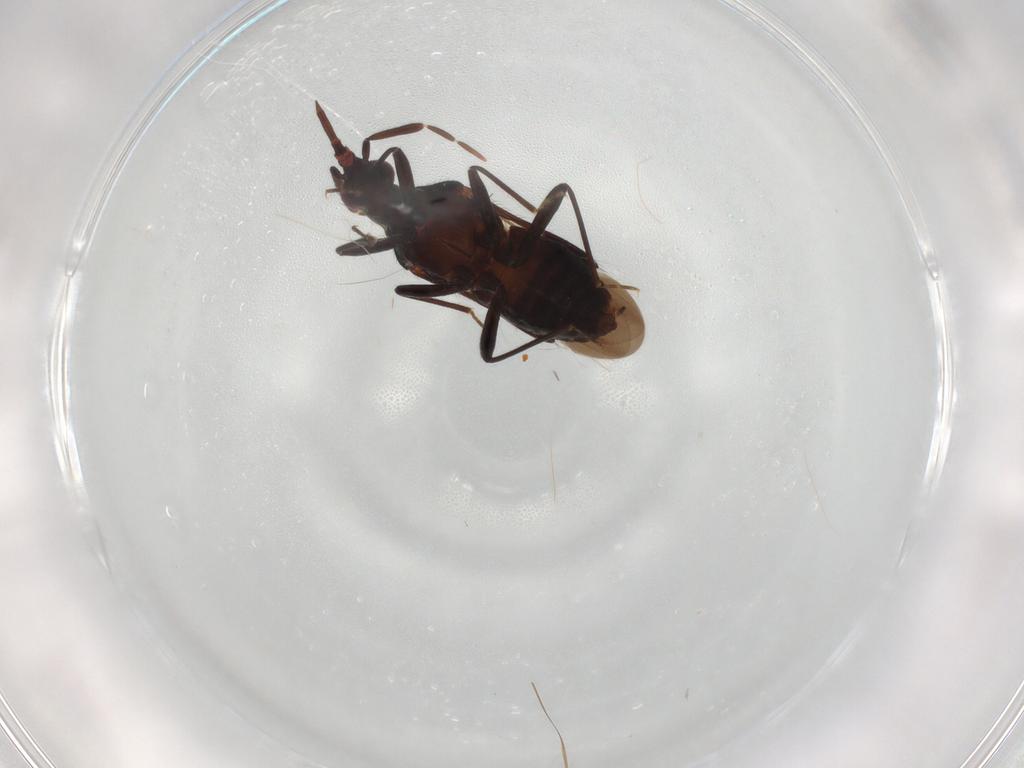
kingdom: Animalia
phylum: Arthropoda
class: Insecta
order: Hemiptera
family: Anthocoridae
